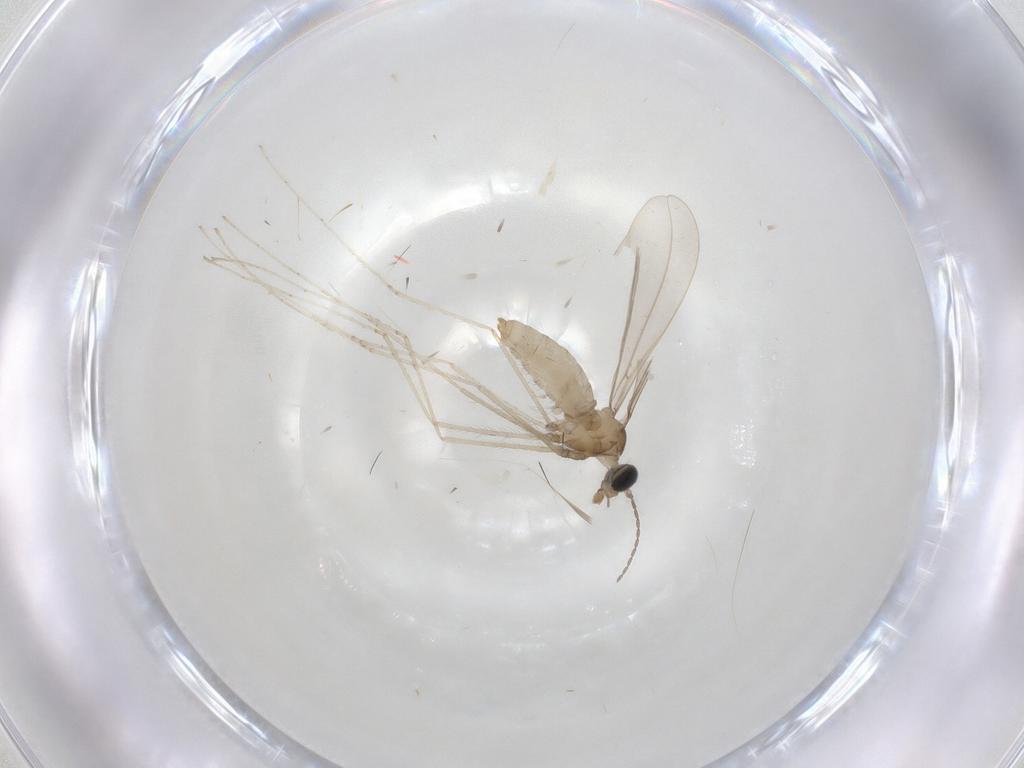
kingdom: Animalia
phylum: Arthropoda
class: Insecta
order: Diptera
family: Cecidomyiidae
